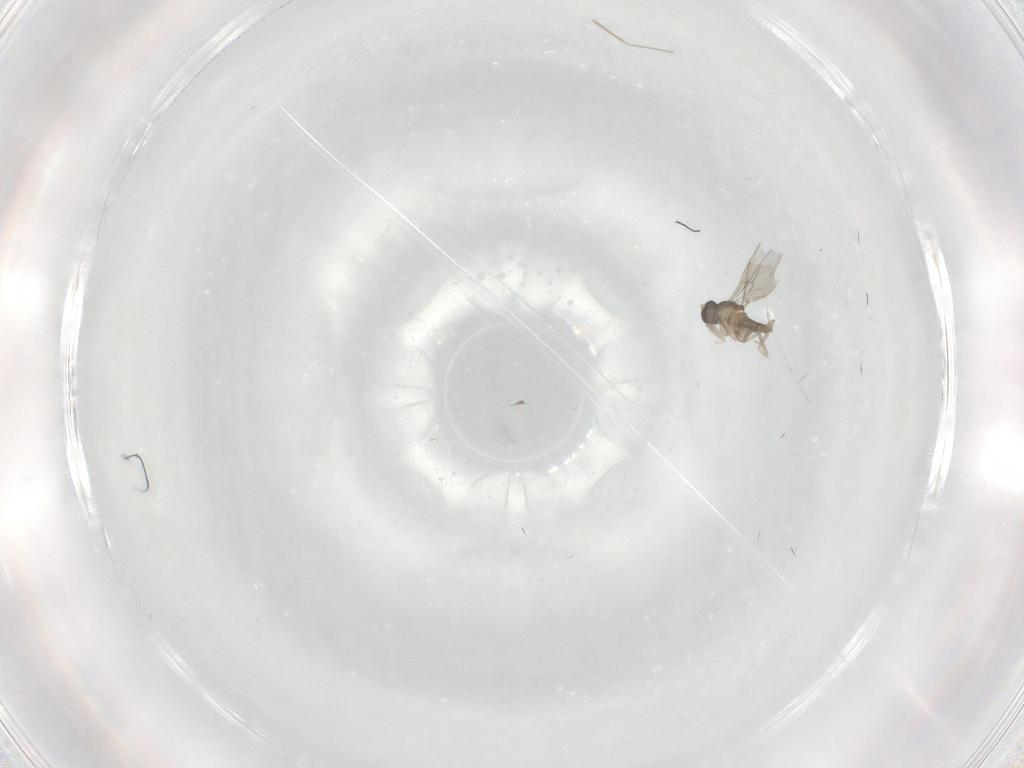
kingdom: Animalia
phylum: Arthropoda
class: Insecta
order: Diptera
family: Cecidomyiidae
